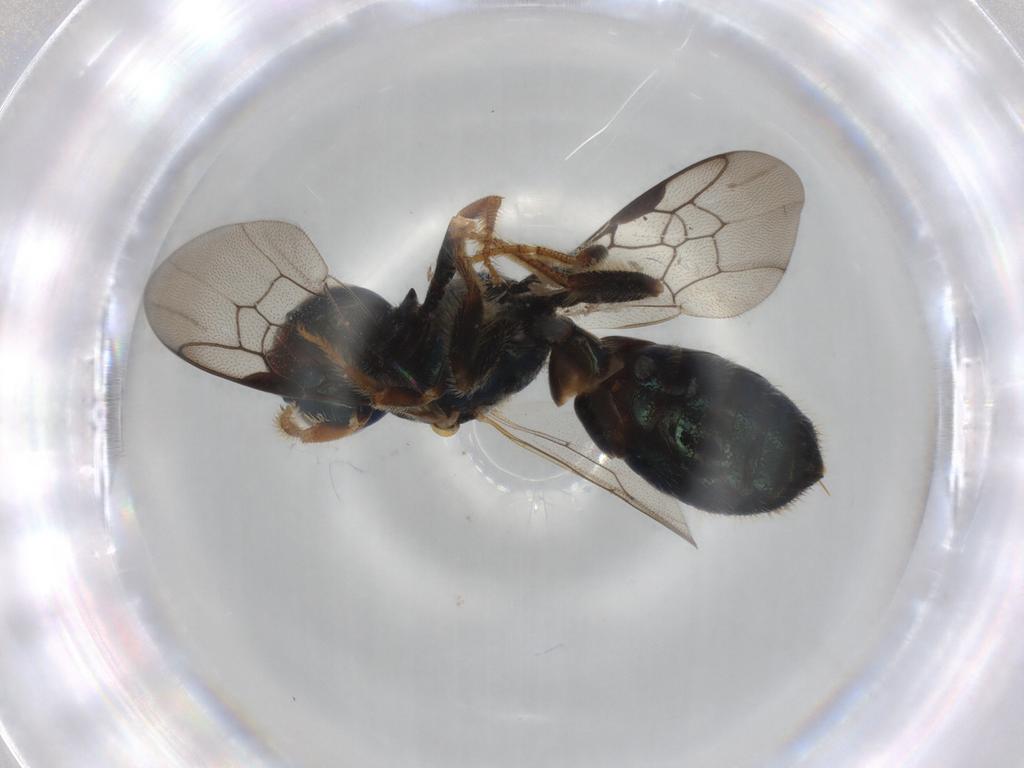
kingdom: Animalia
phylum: Arthropoda
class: Insecta
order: Hymenoptera
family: Apidae
